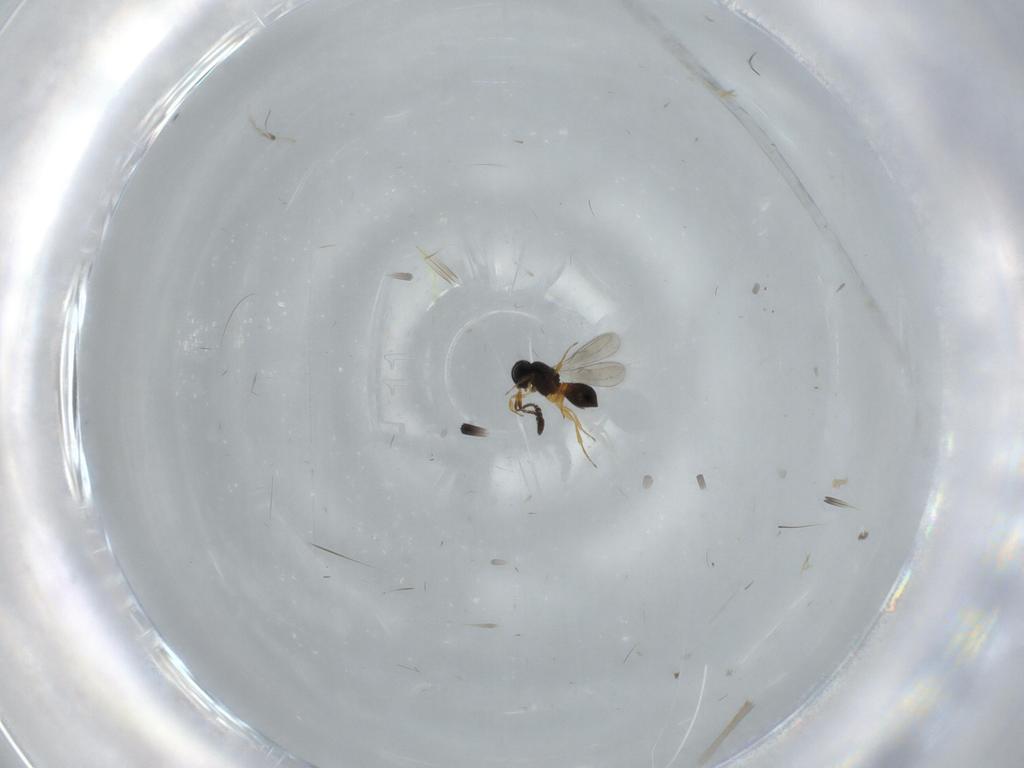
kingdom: Animalia
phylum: Arthropoda
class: Insecta
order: Hymenoptera
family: Scelionidae
